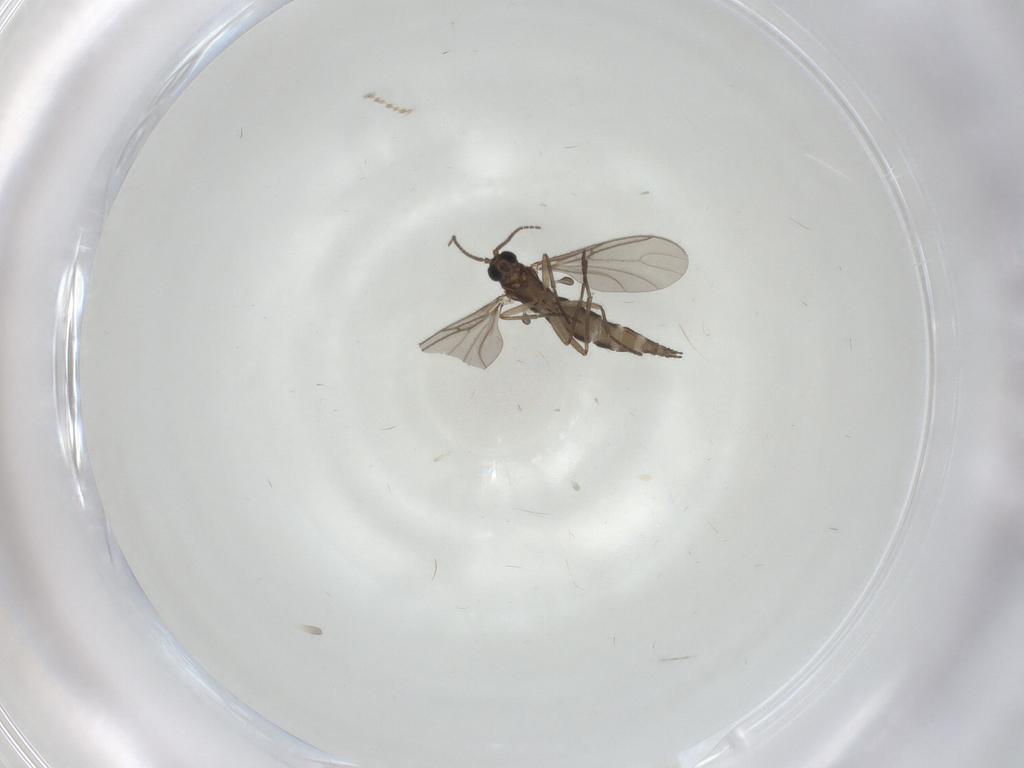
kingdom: Animalia
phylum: Arthropoda
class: Insecta
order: Diptera
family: Sciaridae
